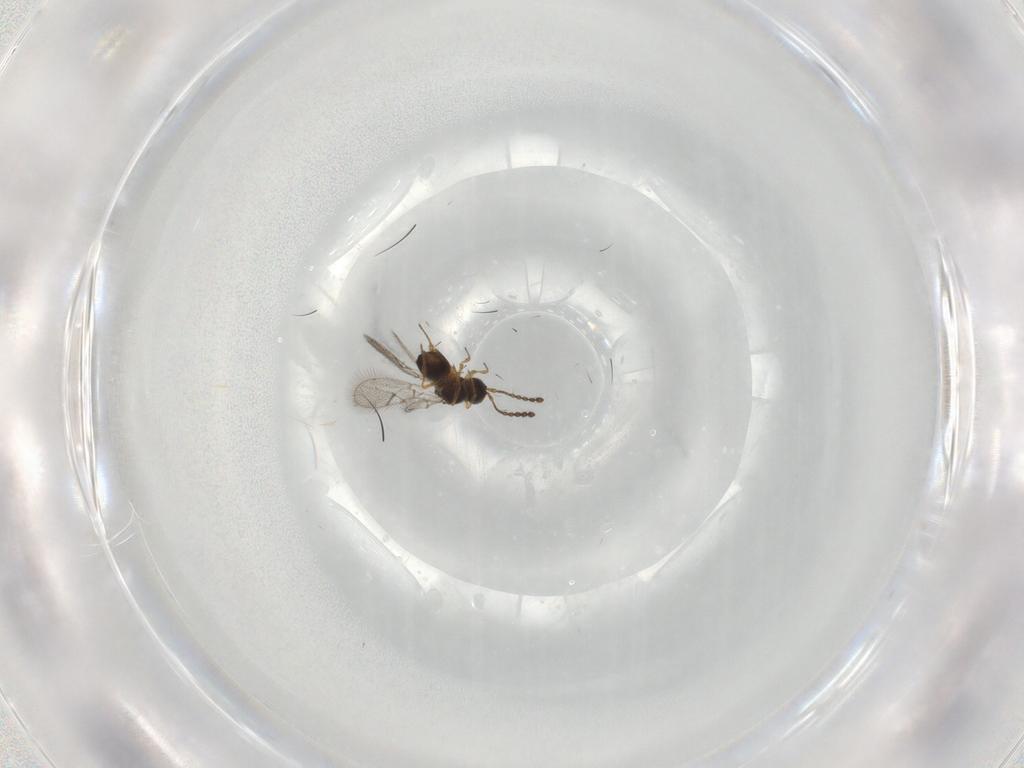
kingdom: Animalia
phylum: Arthropoda
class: Insecta
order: Hymenoptera
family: Figitidae
